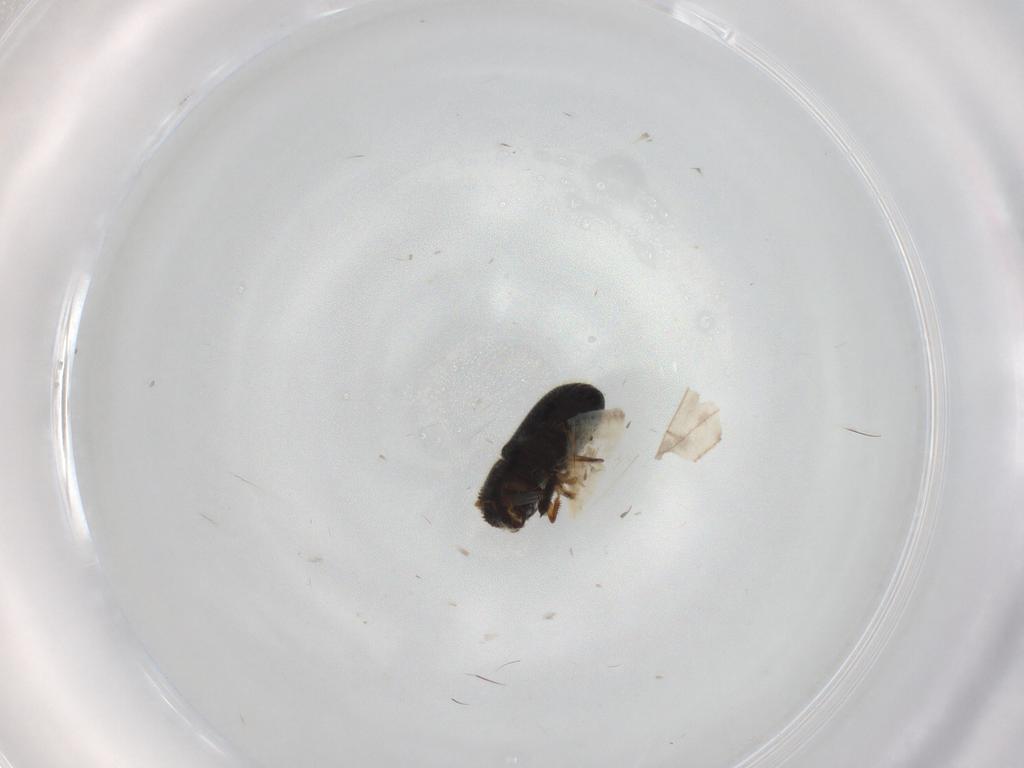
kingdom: Animalia
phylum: Arthropoda
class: Insecta
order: Coleoptera
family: Curculionidae
